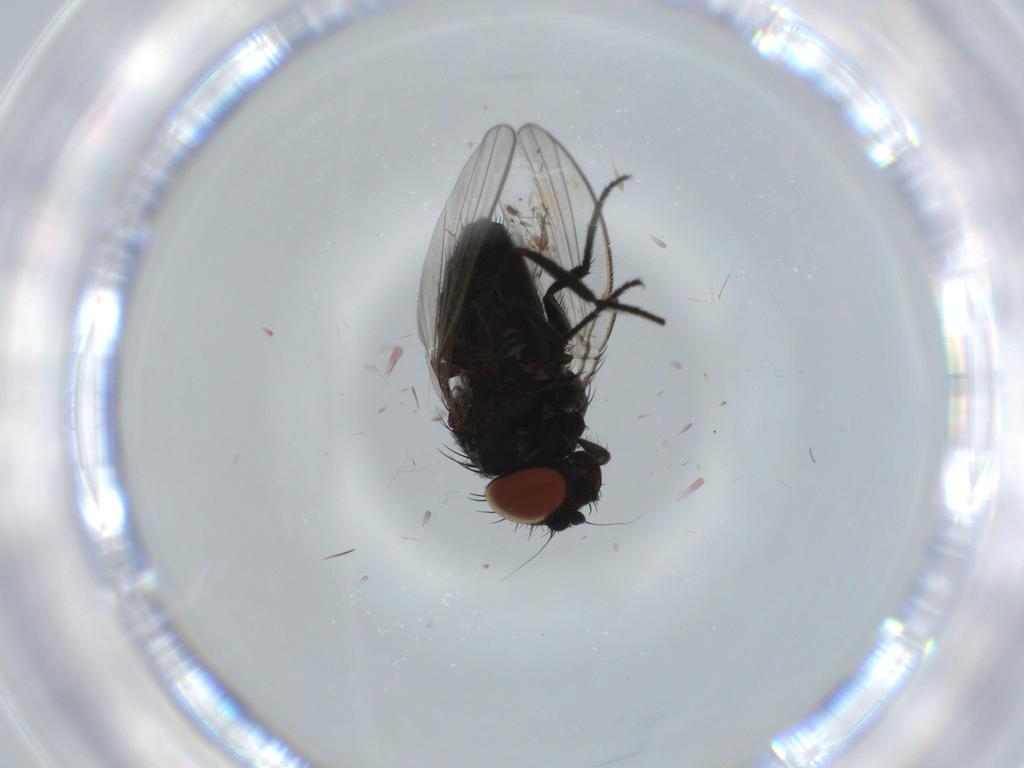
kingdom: Animalia
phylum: Arthropoda
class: Insecta
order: Diptera
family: Milichiidae
